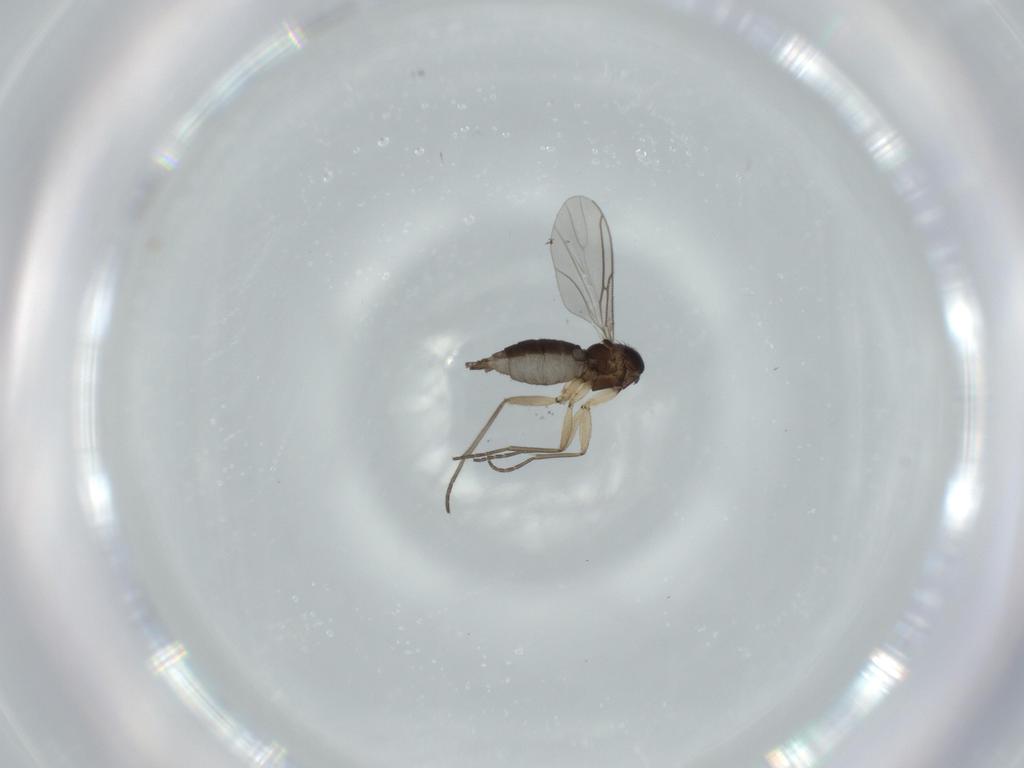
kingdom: Animalia
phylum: Arthropoda
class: Insecta
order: Diptera
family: Sciaridae
